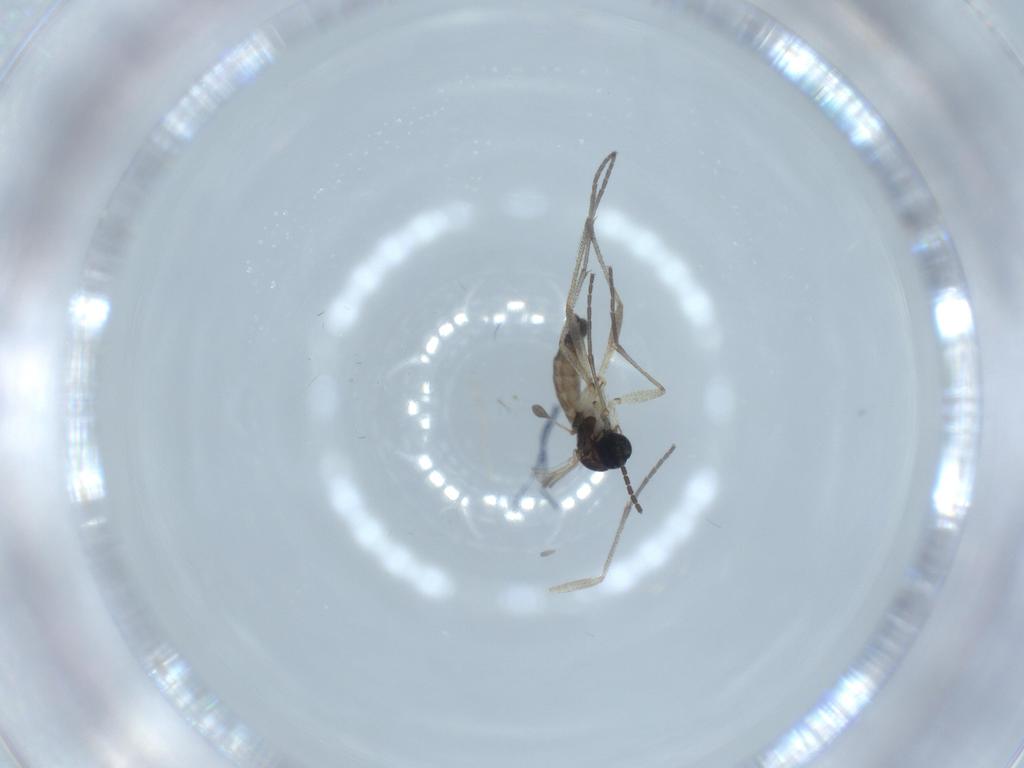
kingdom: Animalia
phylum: Arthropoda
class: Insecta
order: Diptera
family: Sciaridae
